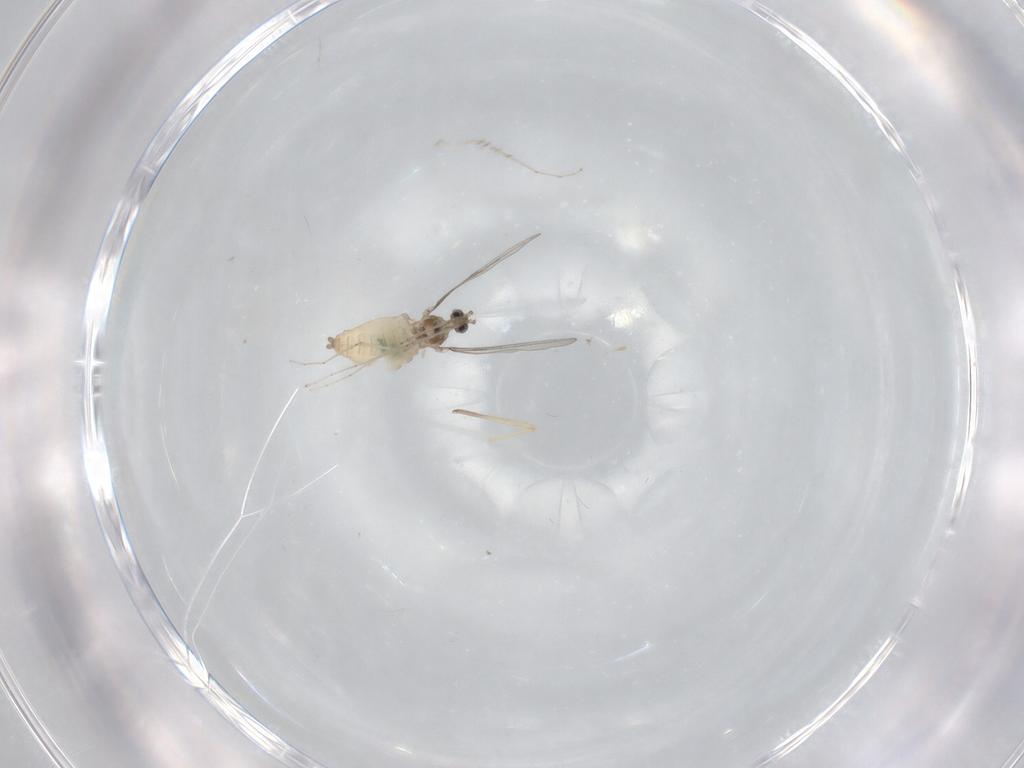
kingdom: Animalia
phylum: Arthropoda
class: Insecta
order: Diptera
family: Cecidomyiidae
